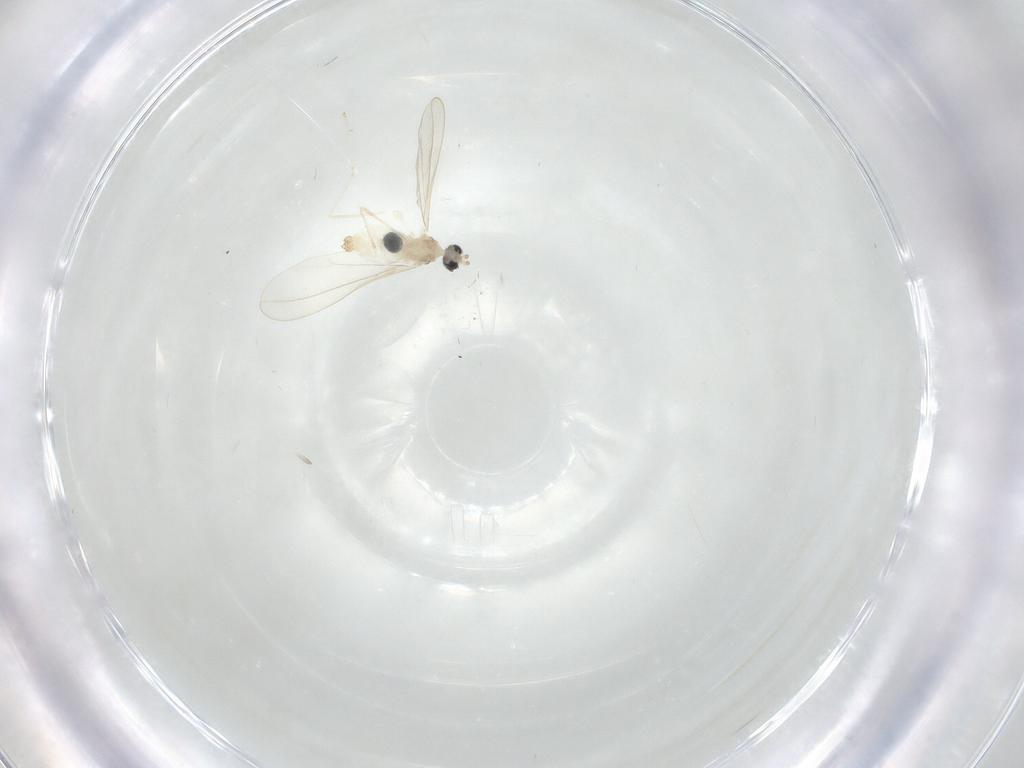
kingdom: Animalia
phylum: Arthropoda
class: Insecta
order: Diptera
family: Cecidomyiidae
